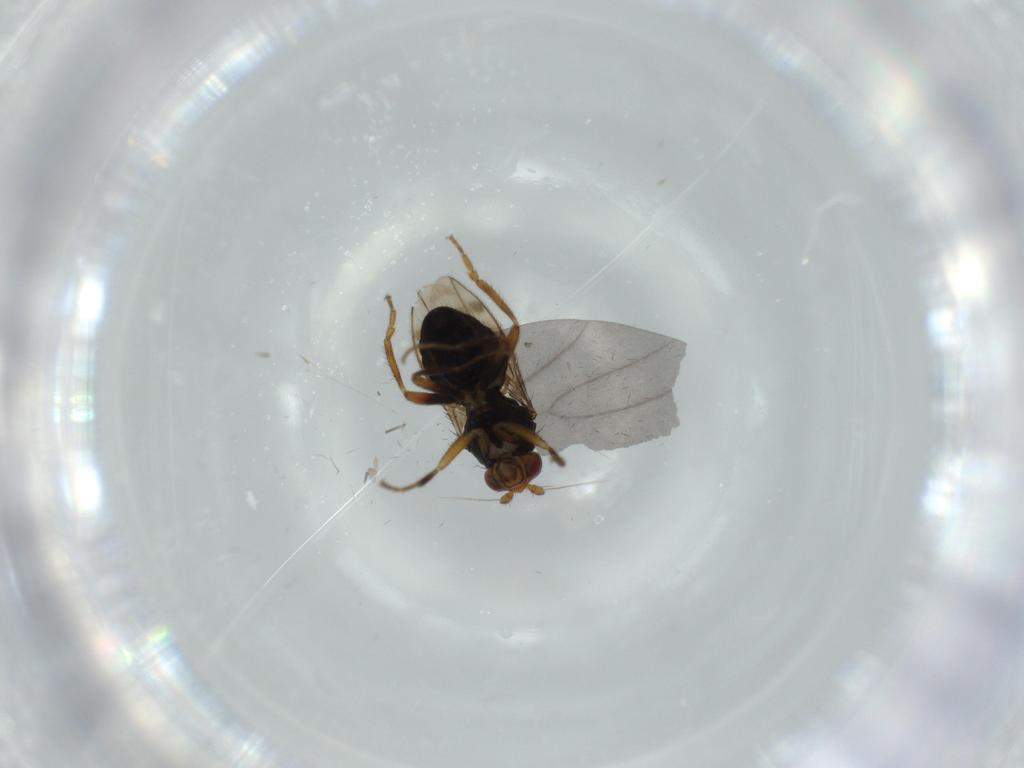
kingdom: Animalia
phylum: Arthropoda
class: Insecta
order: Diptera
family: Sphaeroceridae
